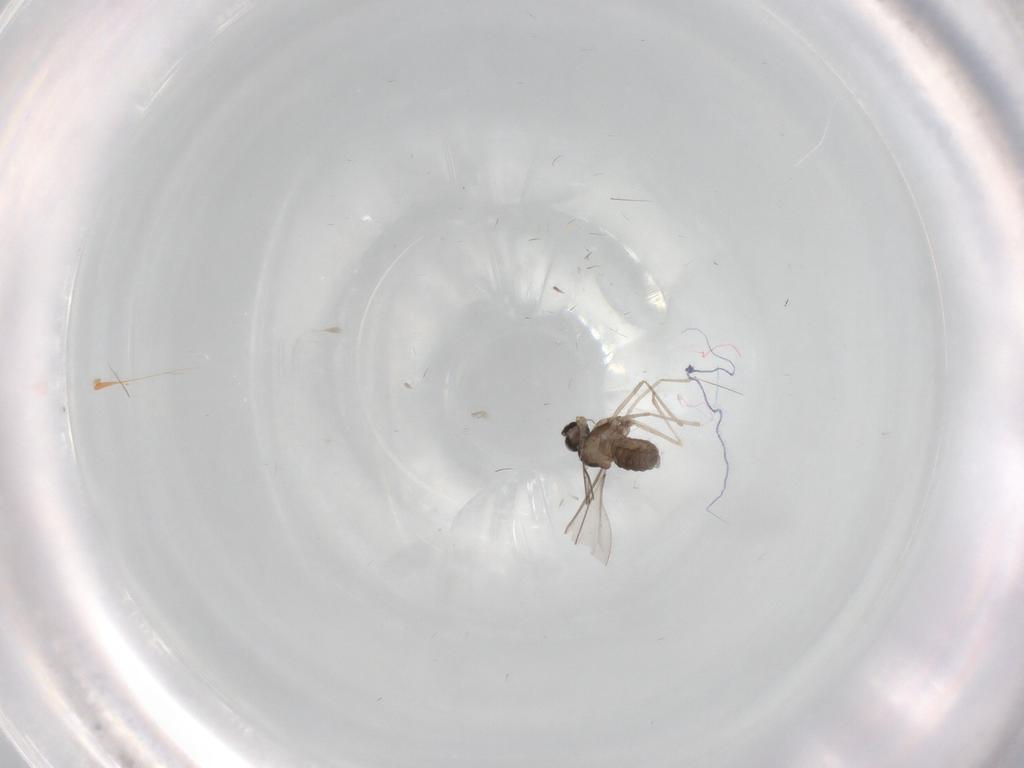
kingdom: Animalia
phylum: Arthropoda
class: Insecta
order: Diptera
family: Cecidomyiidae
